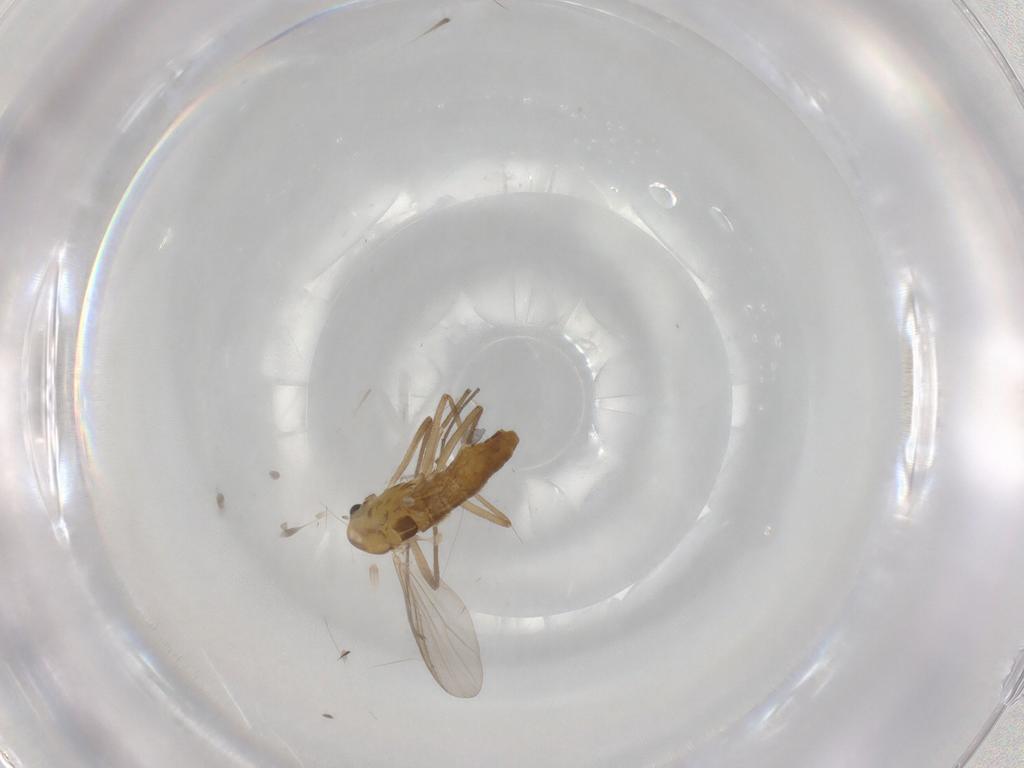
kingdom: Animalia
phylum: Arthropoda
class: Insecta
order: Diptera
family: Chironomidae
